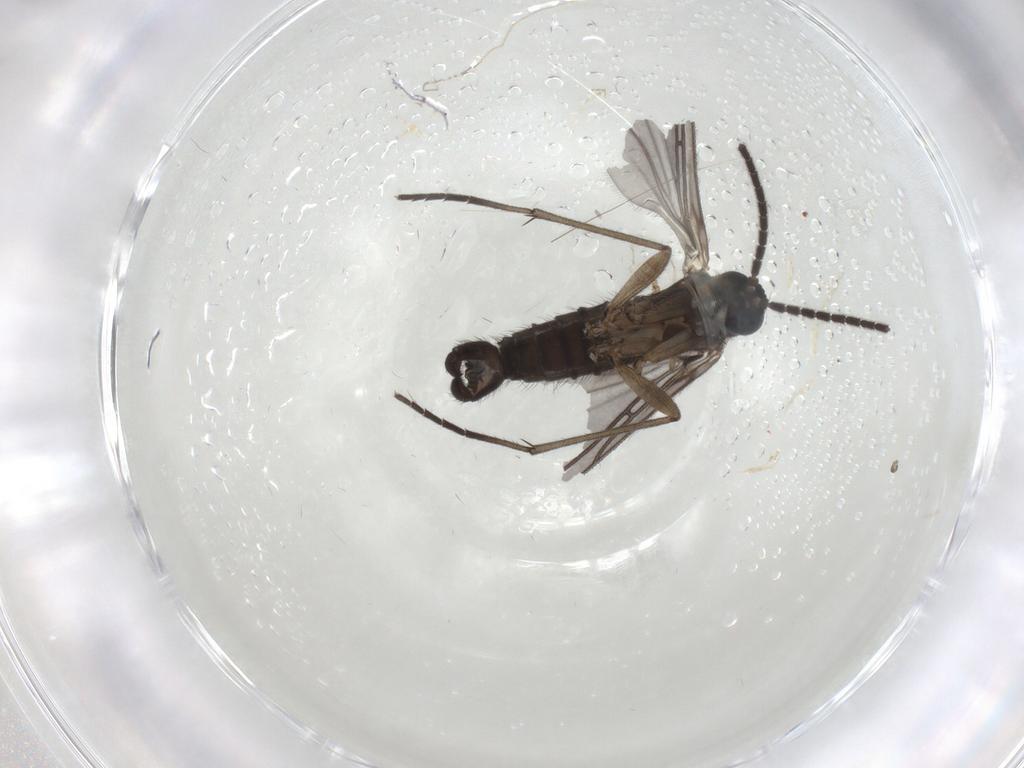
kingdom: Animalia
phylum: Arthropoda
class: Insecta
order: Diptera
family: Sciaridae
